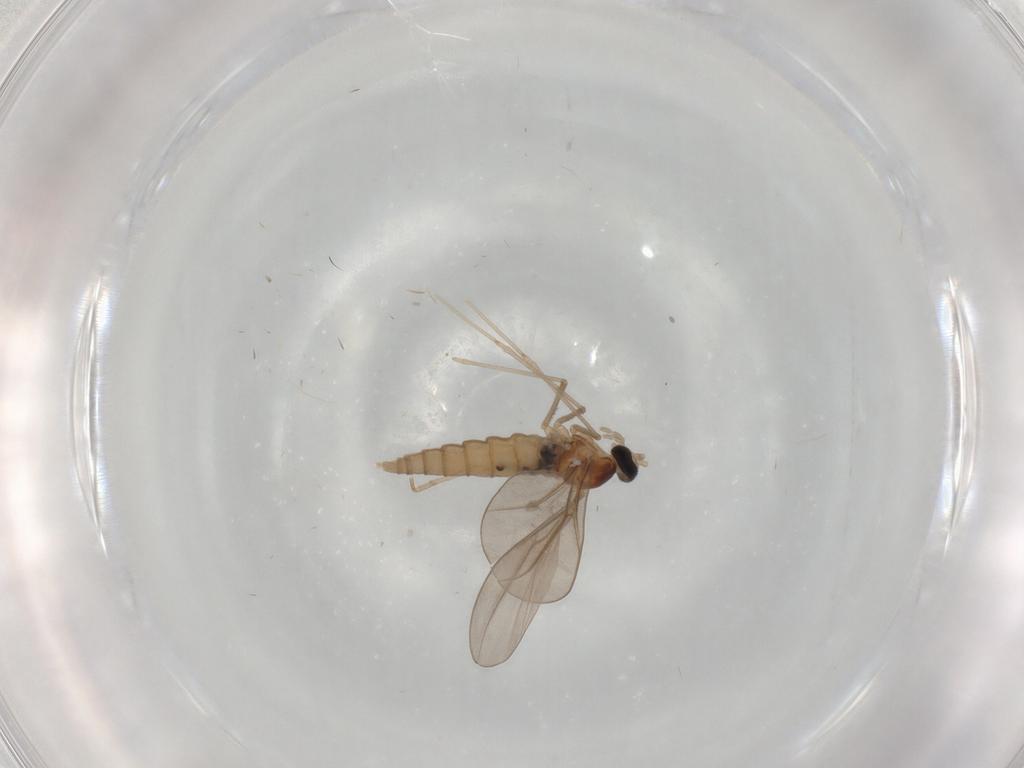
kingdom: Animalia
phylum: Arthropoda
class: Insecta
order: Diptera
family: Cecidomyiidae
